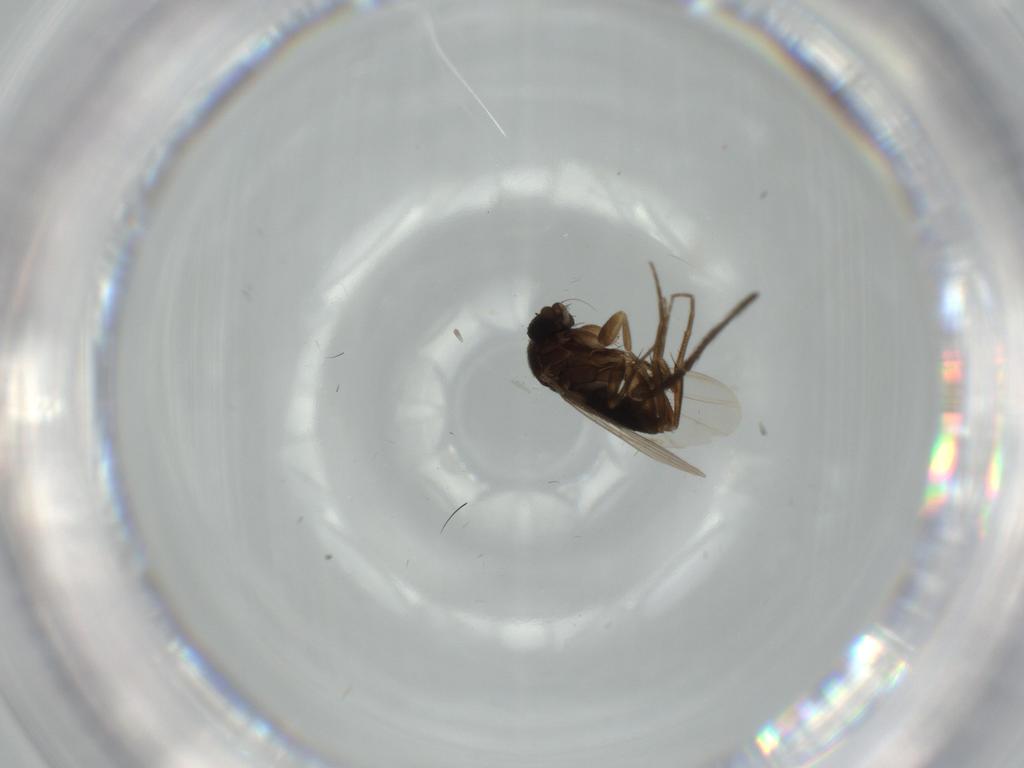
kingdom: Animalia
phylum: Arthropoda
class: Insecta
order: Diptera
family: Phoridae
